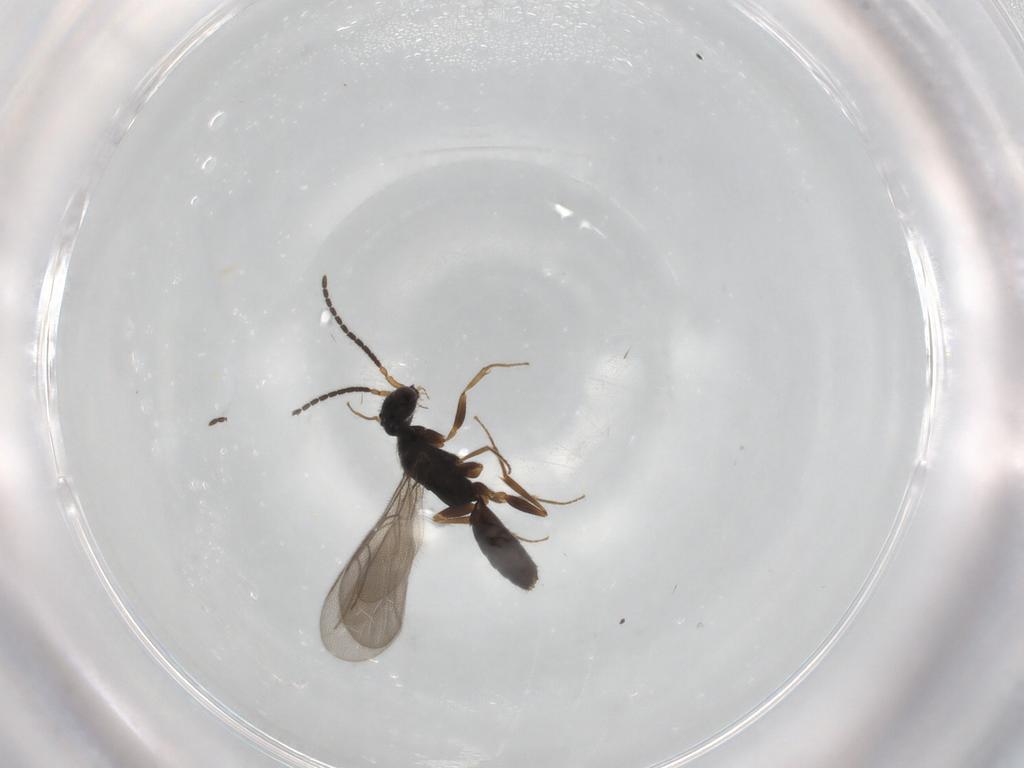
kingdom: Animalia
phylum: Arthropoda
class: Insecta
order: Hymenoptera
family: Bethylidae
